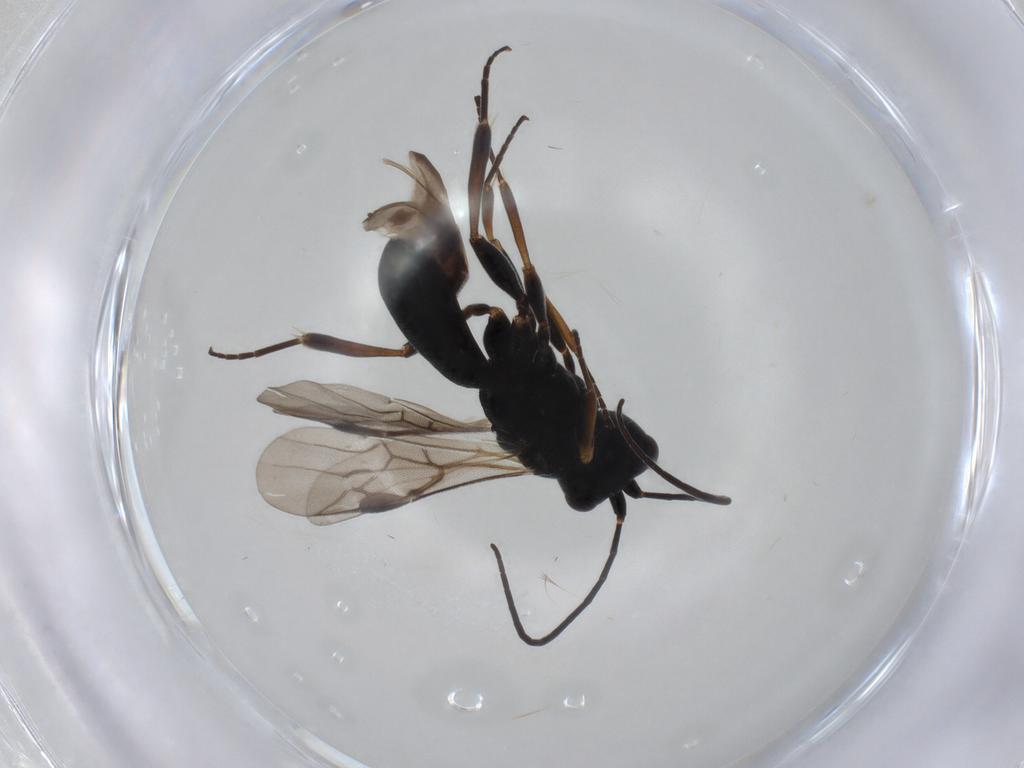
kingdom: Animalia
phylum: Arthropoda
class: Insecta
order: Hymenoptera
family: Braconidae
